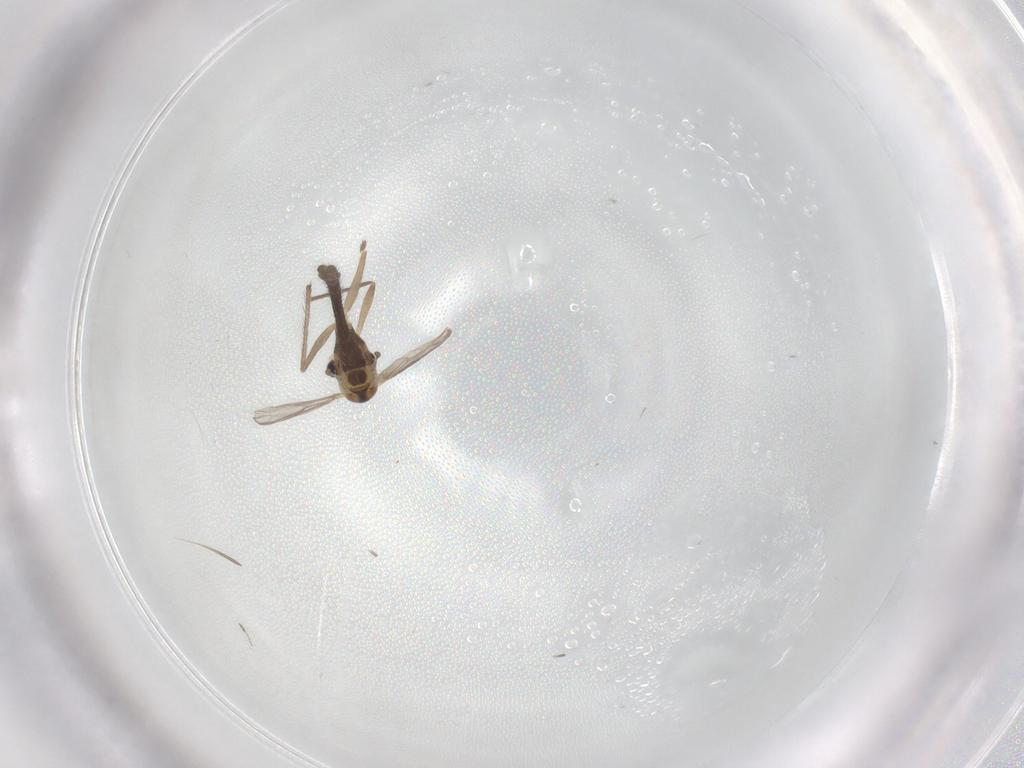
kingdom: Animalia
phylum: Arthropoda
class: Insecta
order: Diptera
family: Chironomidae
